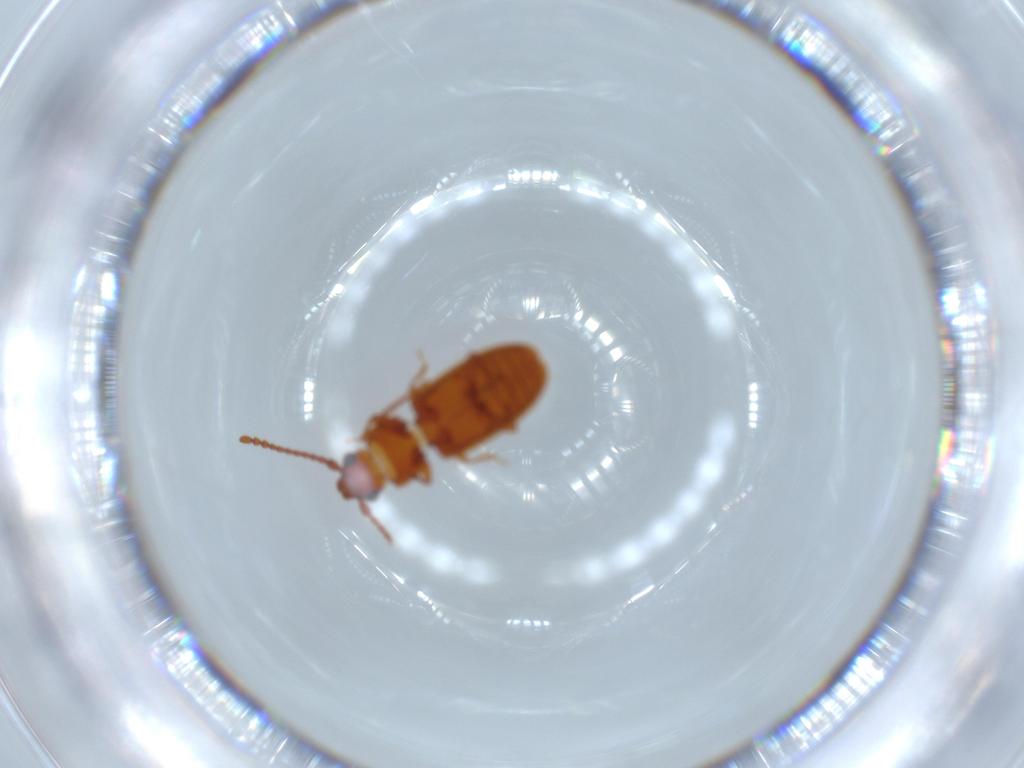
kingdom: Animalia
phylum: Arthropoda
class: Insecta
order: Coleoptera
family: Laemophloeidae
